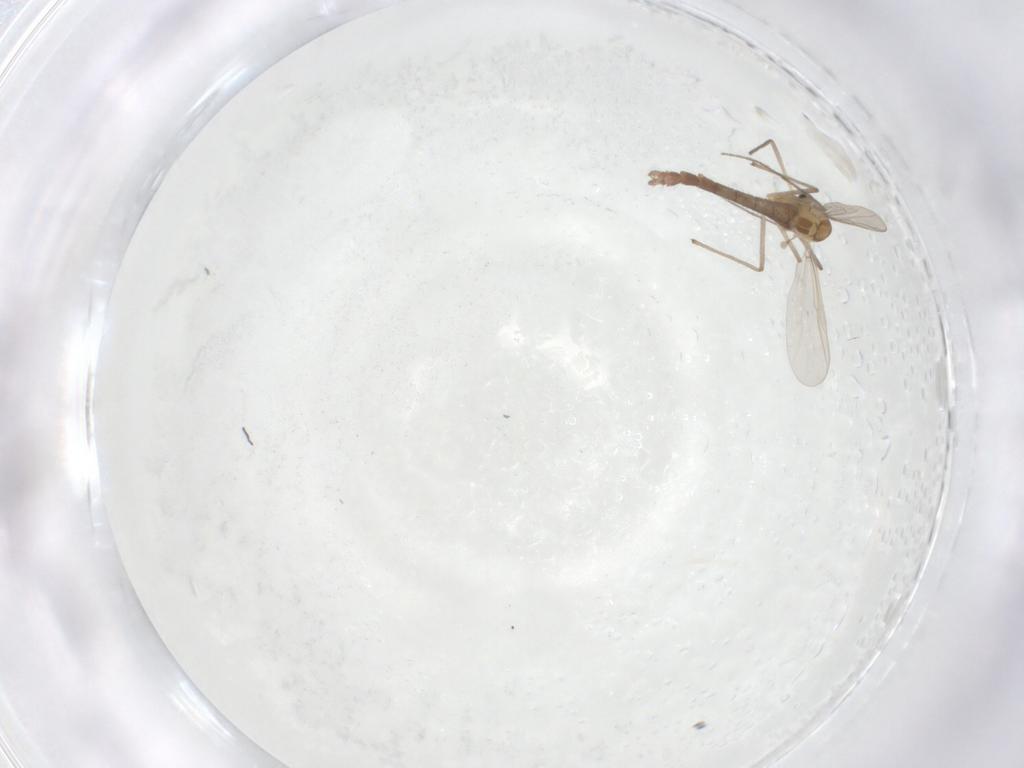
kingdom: Animalia
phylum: Arthropoda
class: Insecta
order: Diptera
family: Chironomidae
